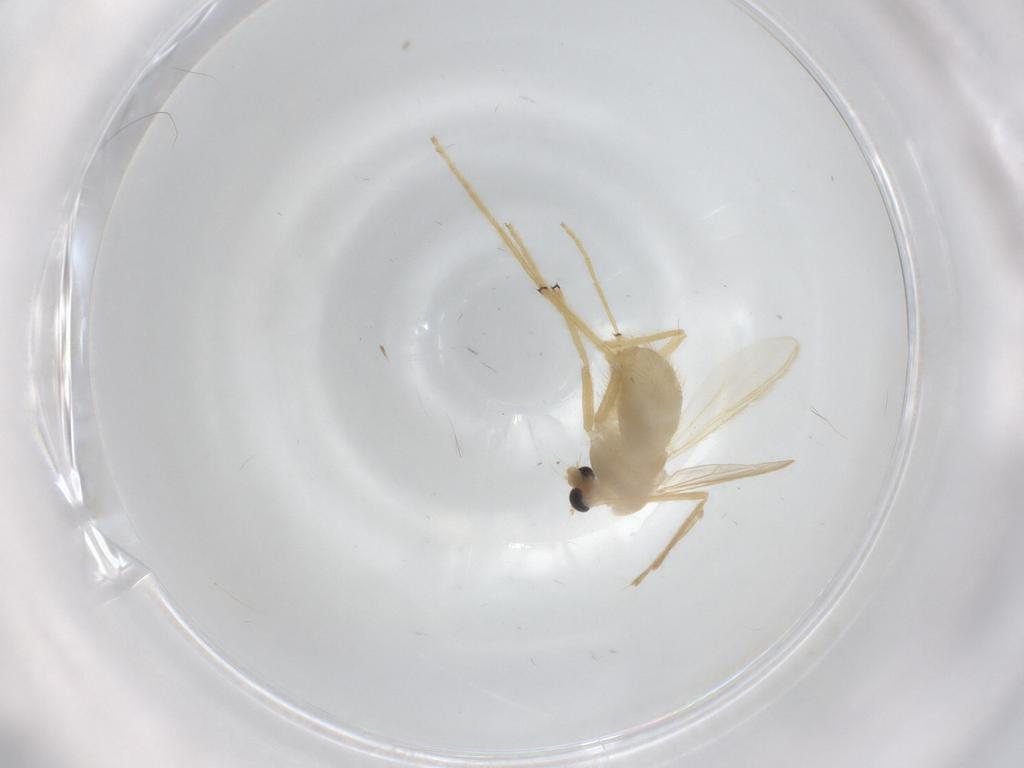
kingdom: Animalia
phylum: Arthropoda
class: Insecta
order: Diptera
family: Chironomidae
